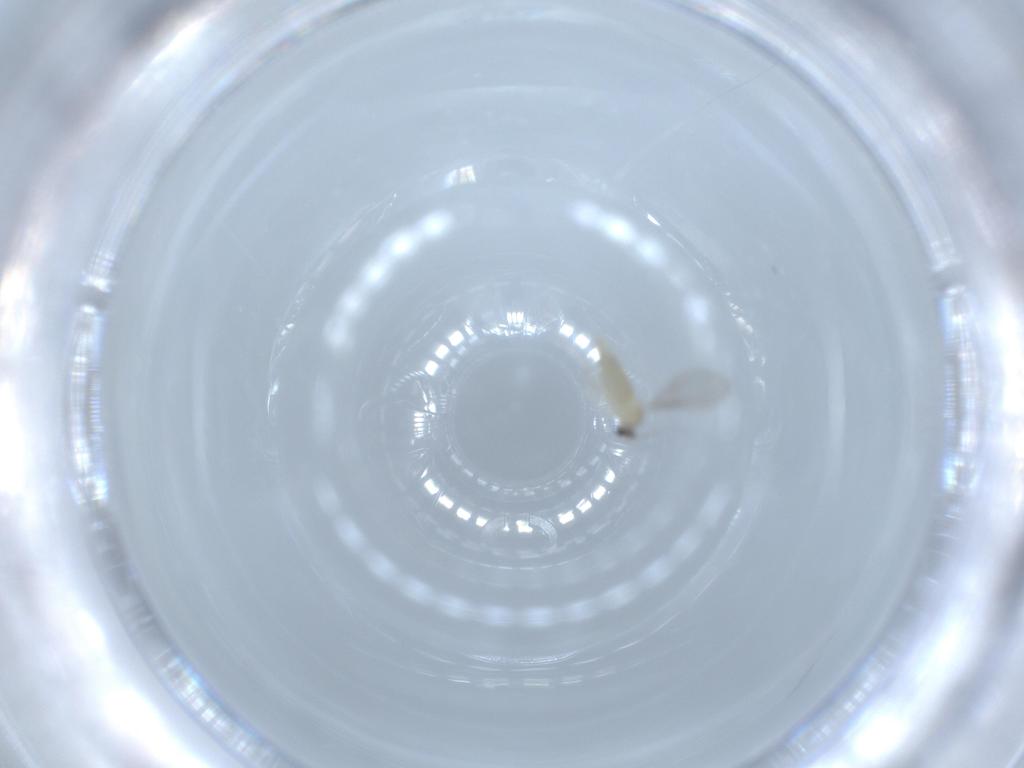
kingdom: Animalia
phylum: Arthropoda
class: Insecta
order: Diptera
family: Cecidomyiidae
